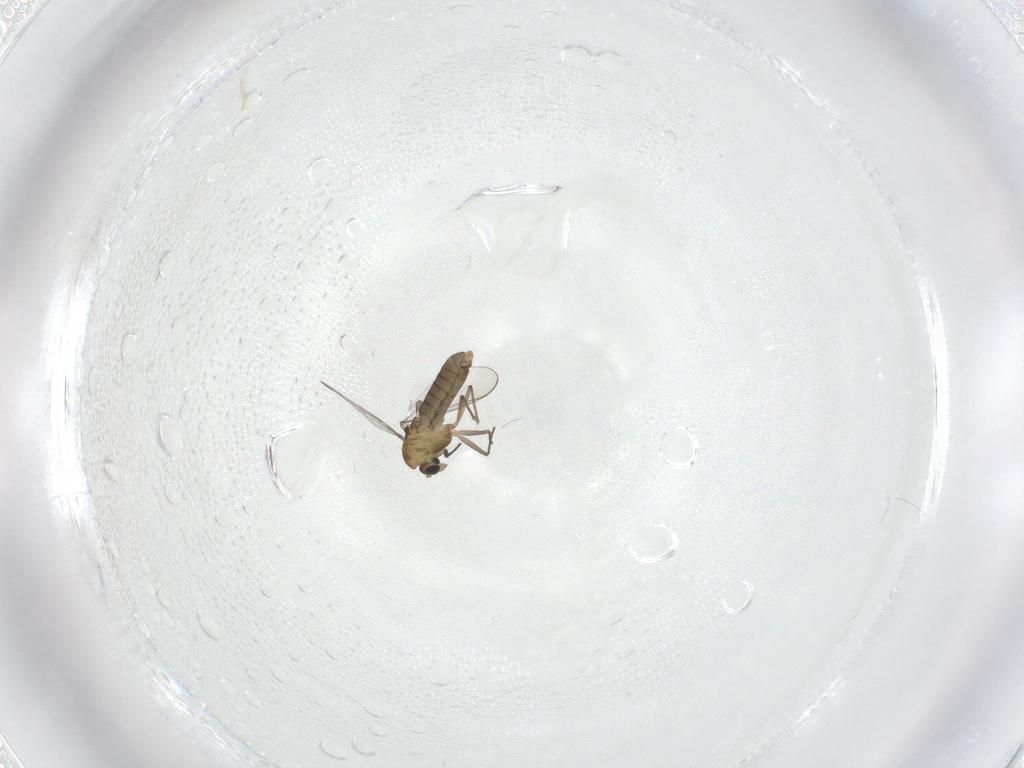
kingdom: Animalia
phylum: Arthropoda
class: Insecta
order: Diptera
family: Chironomidae
